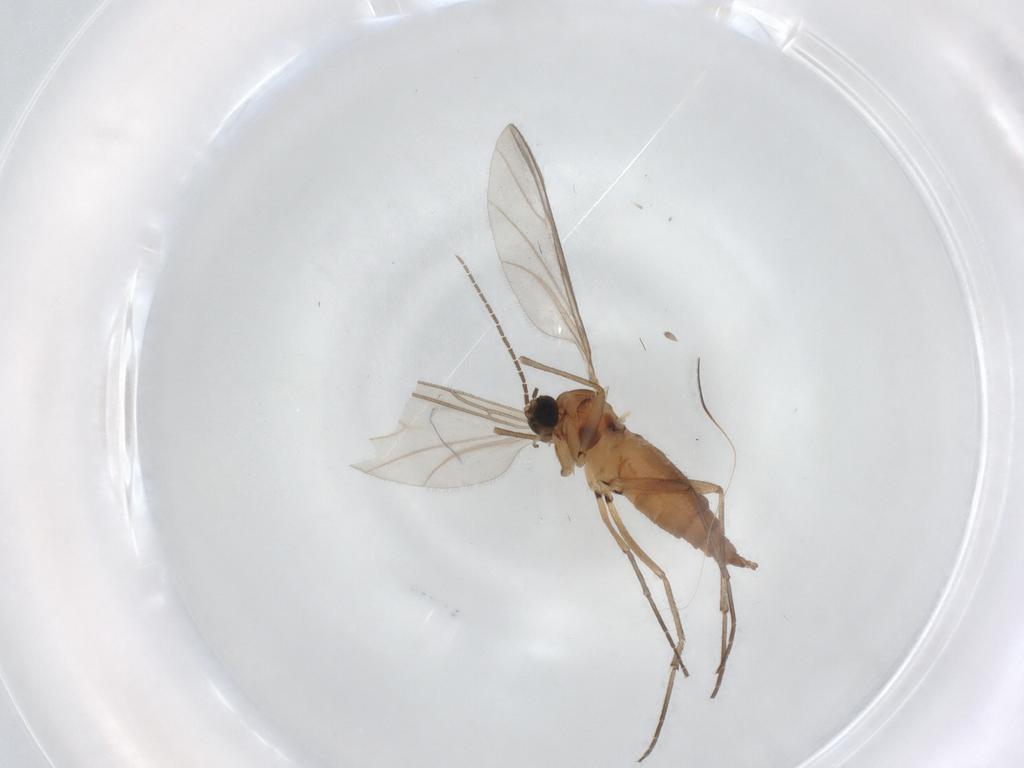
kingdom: Animalia
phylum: Arthropoda
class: Insecta
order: Diptera
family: Sciaridae
